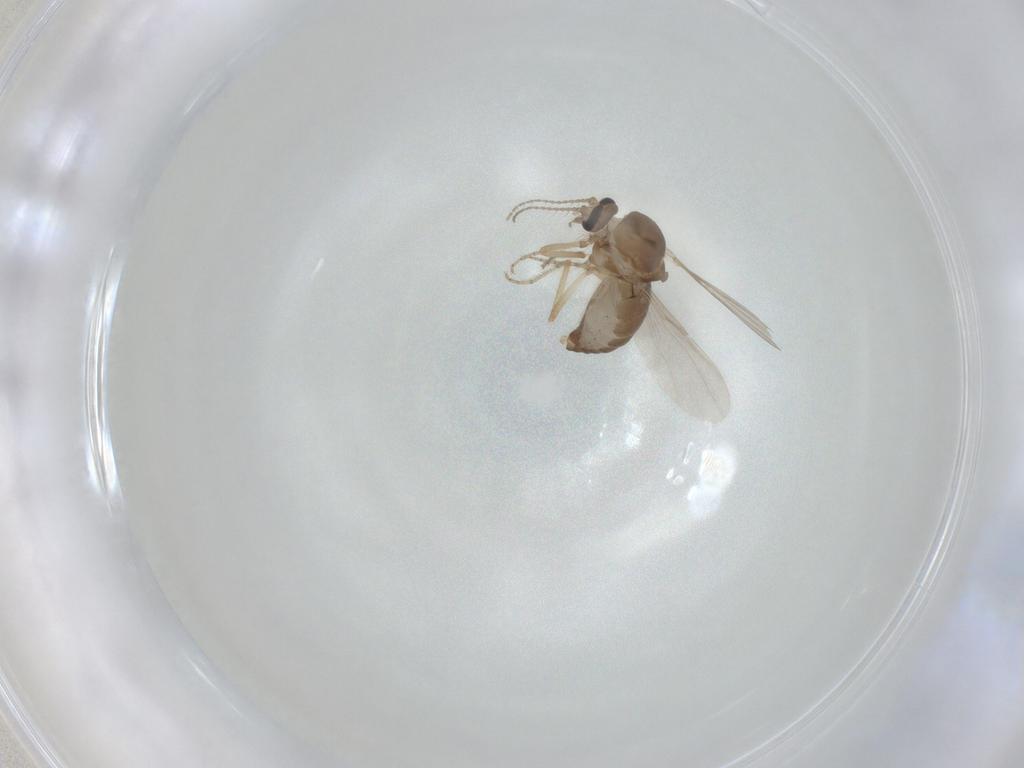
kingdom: Animalia
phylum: Arthropoda
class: Insecta
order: Diptera
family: Ceratopogonidae
